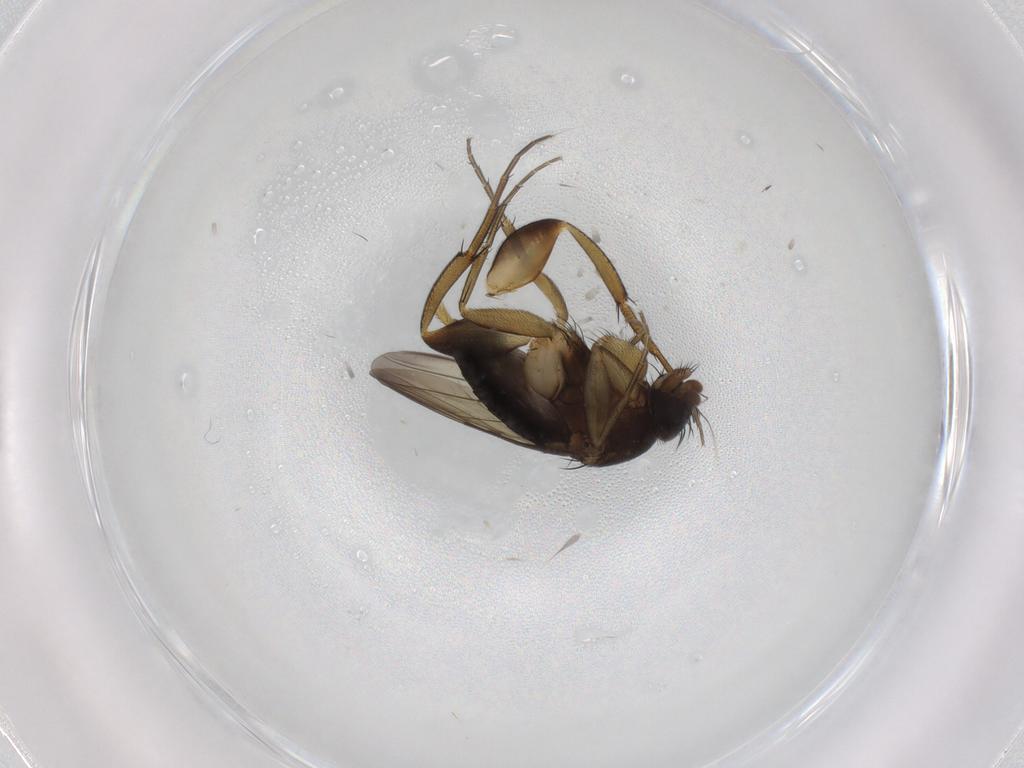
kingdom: Animalia
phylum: Arthropoda
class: Insecta
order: Diptera
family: Phoridae
